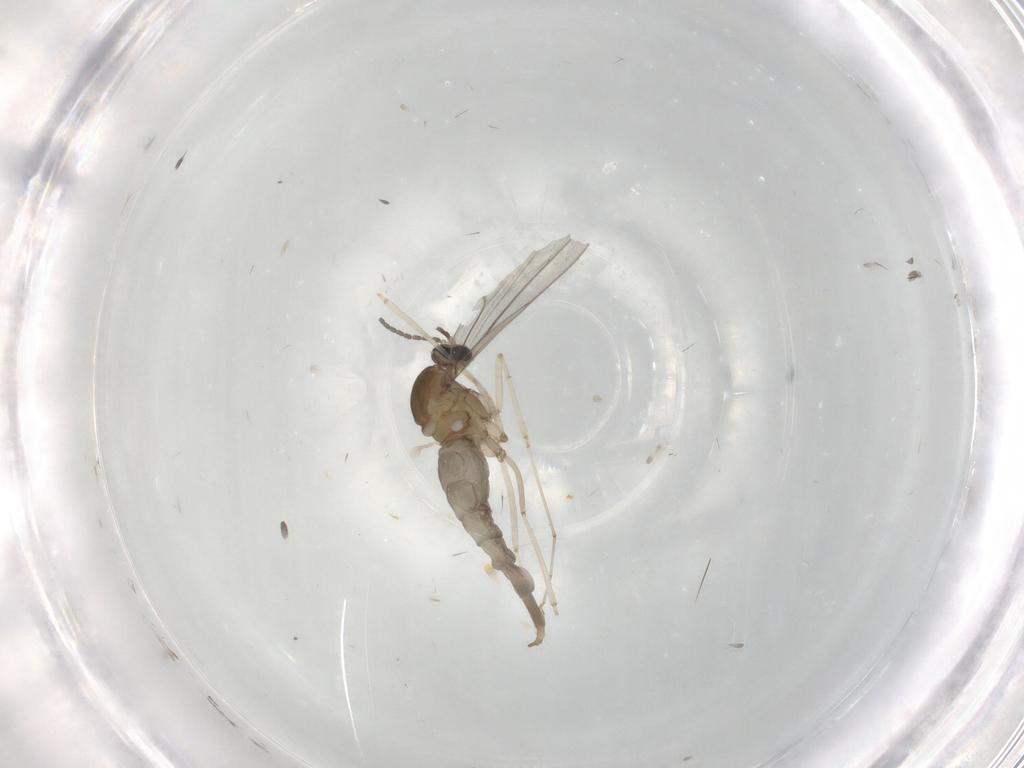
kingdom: Animalia
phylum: Arthropoda
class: Insecta
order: Diptera
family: Cecidomyiidae
